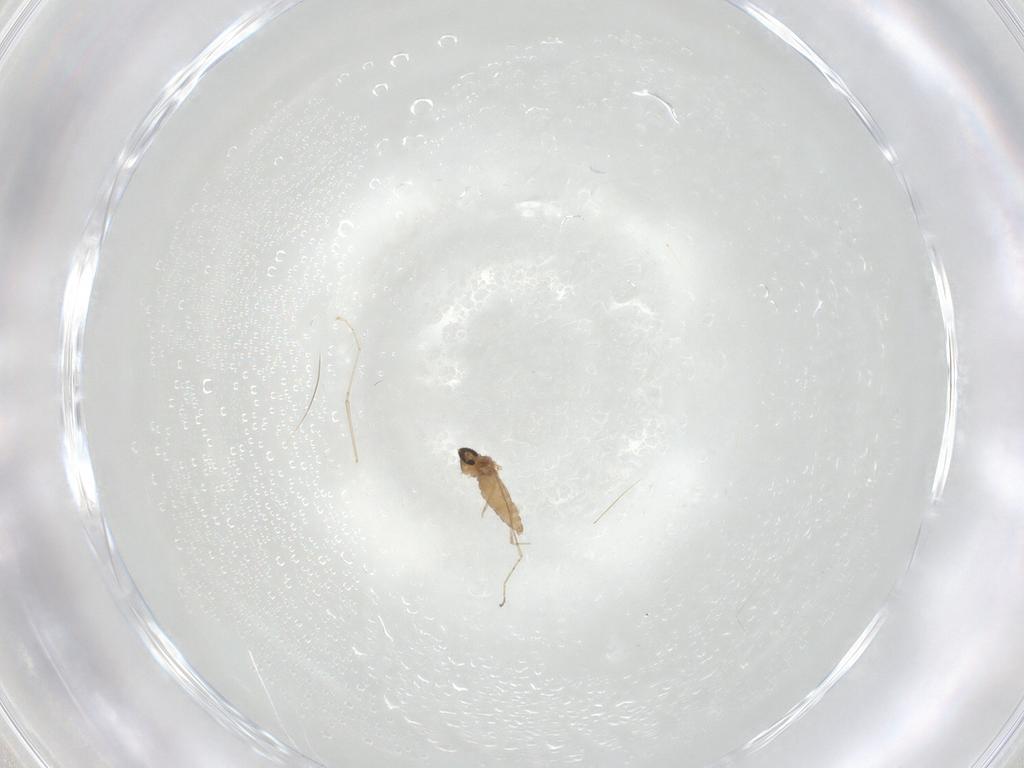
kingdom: Animalia
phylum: Arthropoda
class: Insecta
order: Diptera
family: Cecidomyiidae
